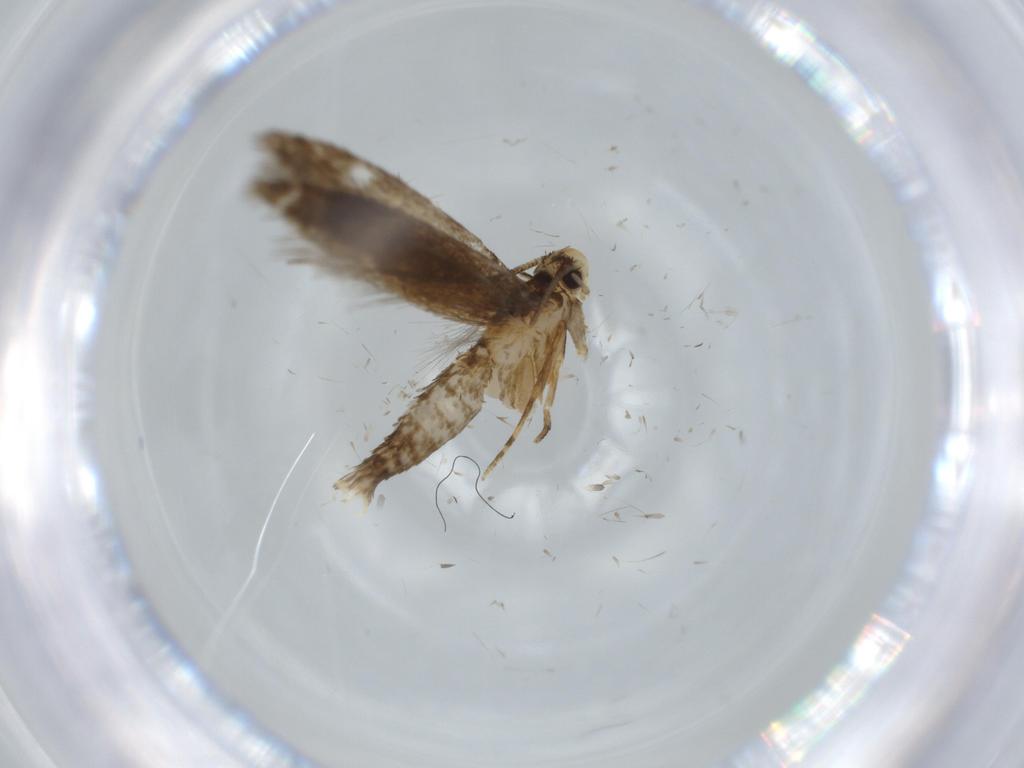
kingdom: Animalia
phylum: Arthropoda
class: Insecta
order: Lepidoptera
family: Tineidae
